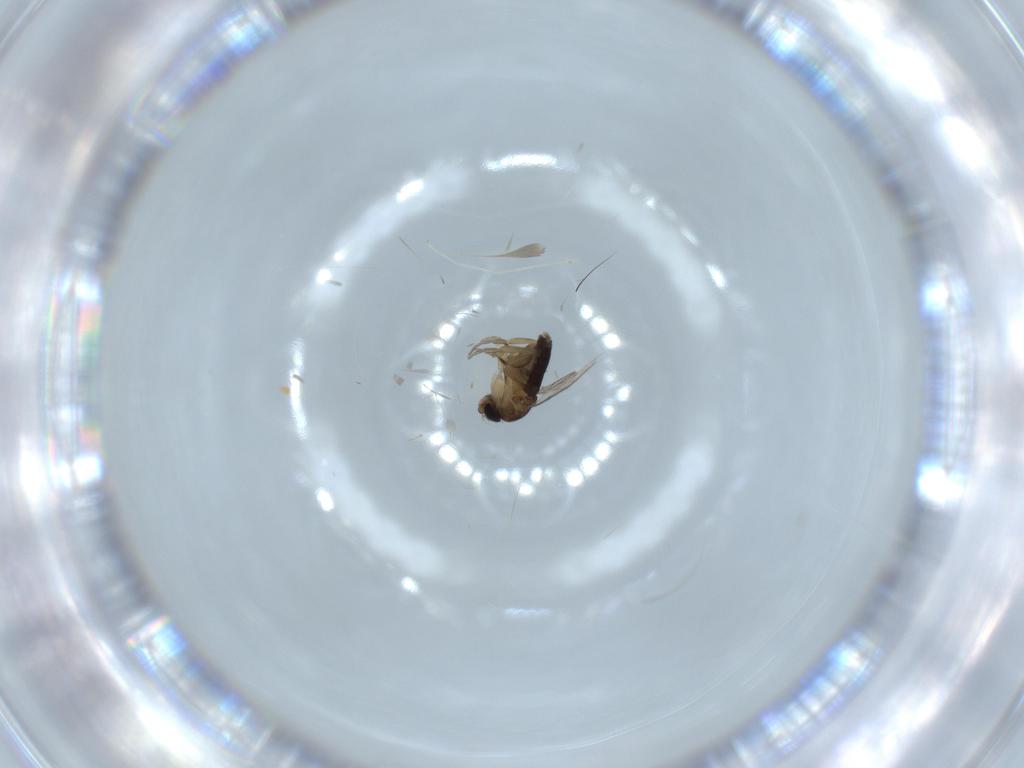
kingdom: Animalia
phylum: Arthropoda
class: Insecta
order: Diptera
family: Chironomidae
